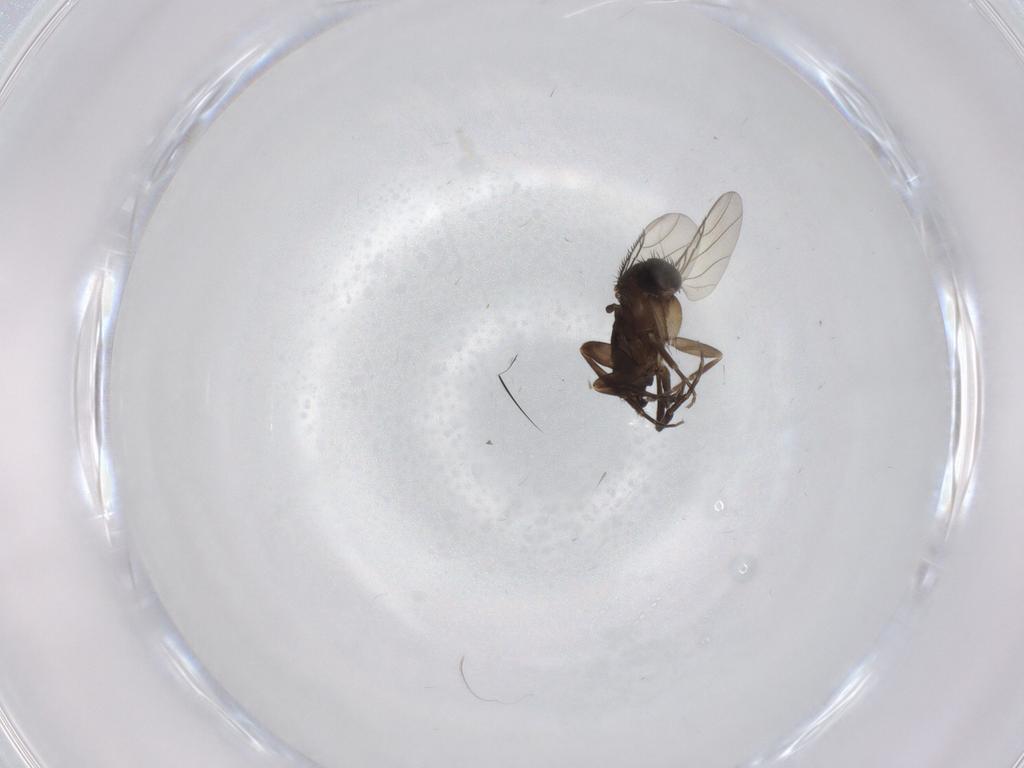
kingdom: Animalia
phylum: Arthropoda
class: Insecta
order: Diptera
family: Phoridae
